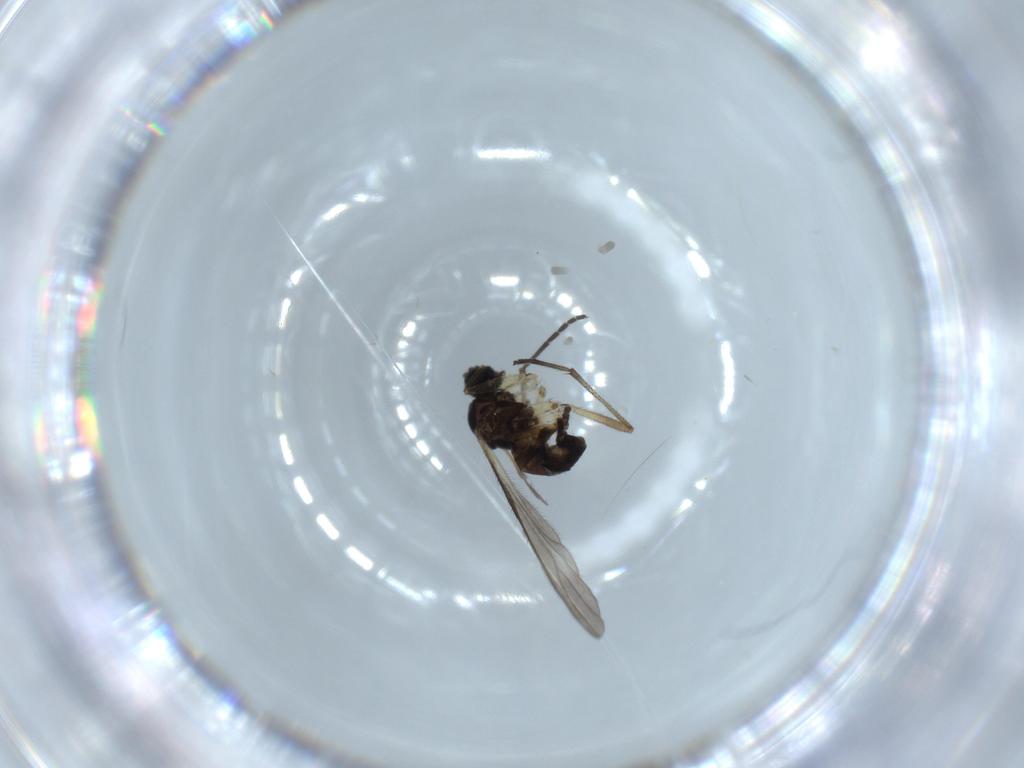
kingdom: Animalia
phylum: Arthropoda
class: Insecta
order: Diptera
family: Sciaridae
